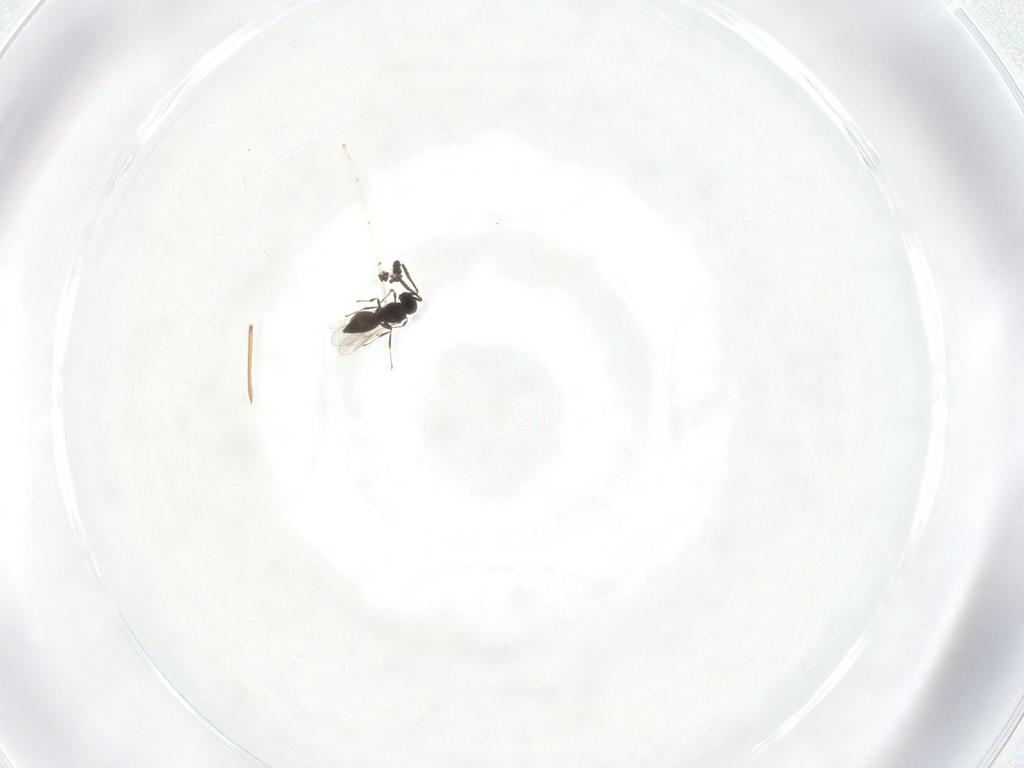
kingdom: Animalia
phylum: Arthropoda
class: Insecta
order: Hymenoptera
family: Scelionidae
